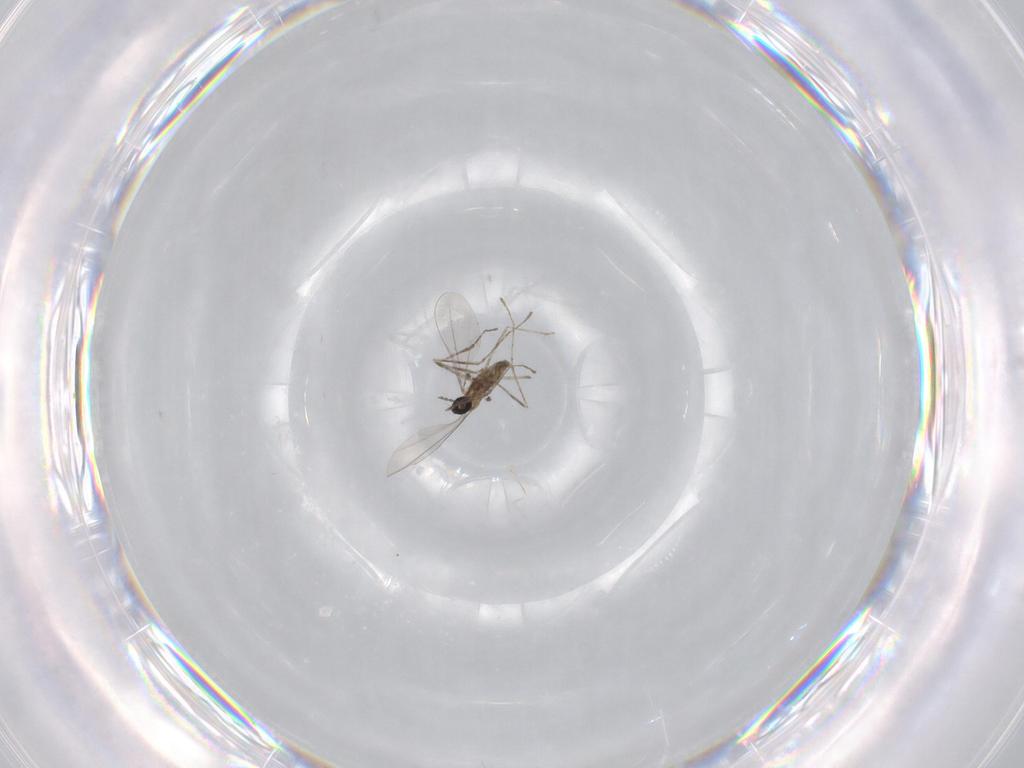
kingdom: Animalia
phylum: Arthropoda
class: Insecta
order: Diptera
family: Cecidomyiidae
